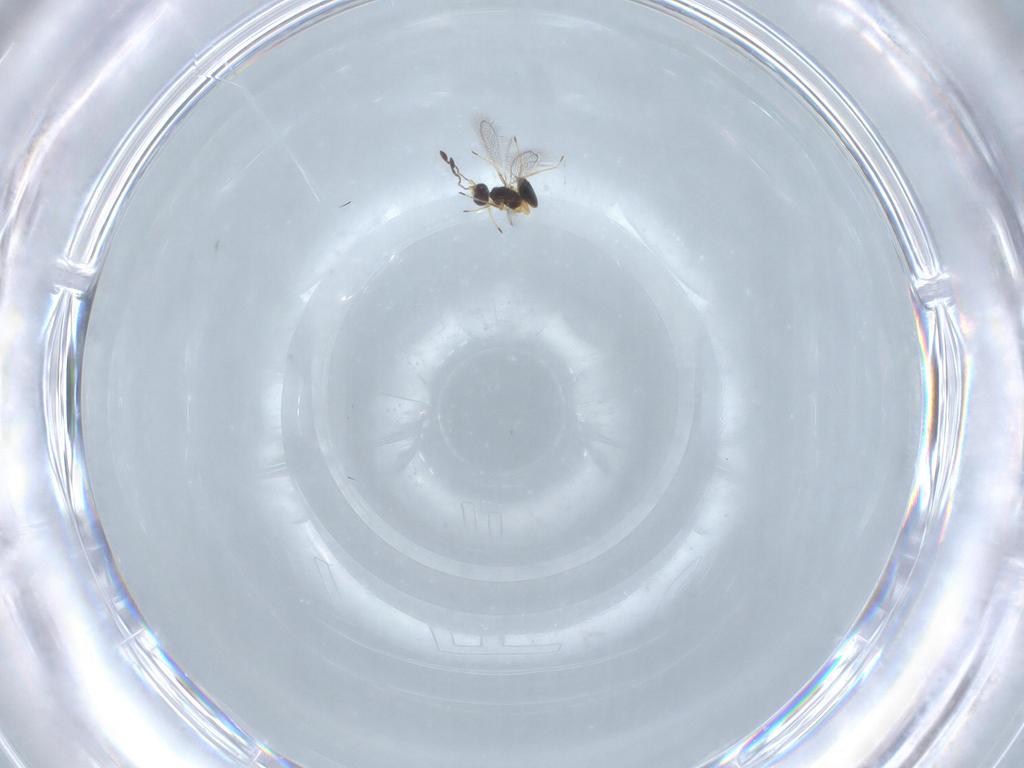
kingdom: Animalia
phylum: Arthropoda
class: Insecta
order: Hymenoptera
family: Mymaridae
